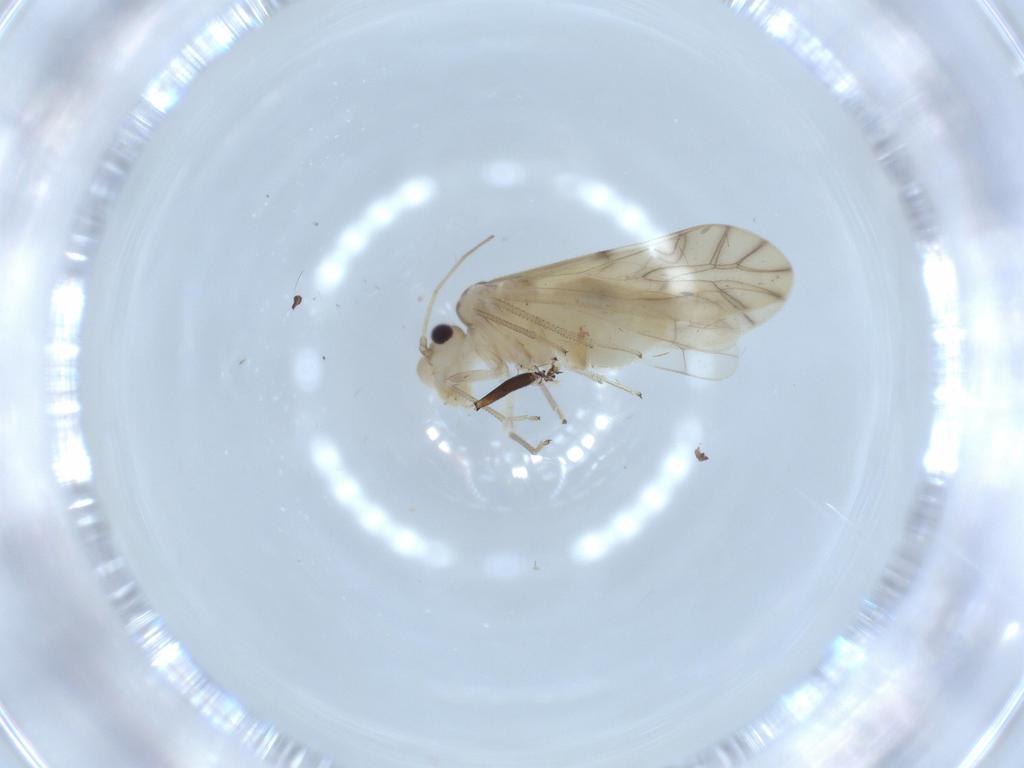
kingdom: Animalia
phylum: Arthropoda
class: Insecta
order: Psocodea
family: Caeciliusidae
